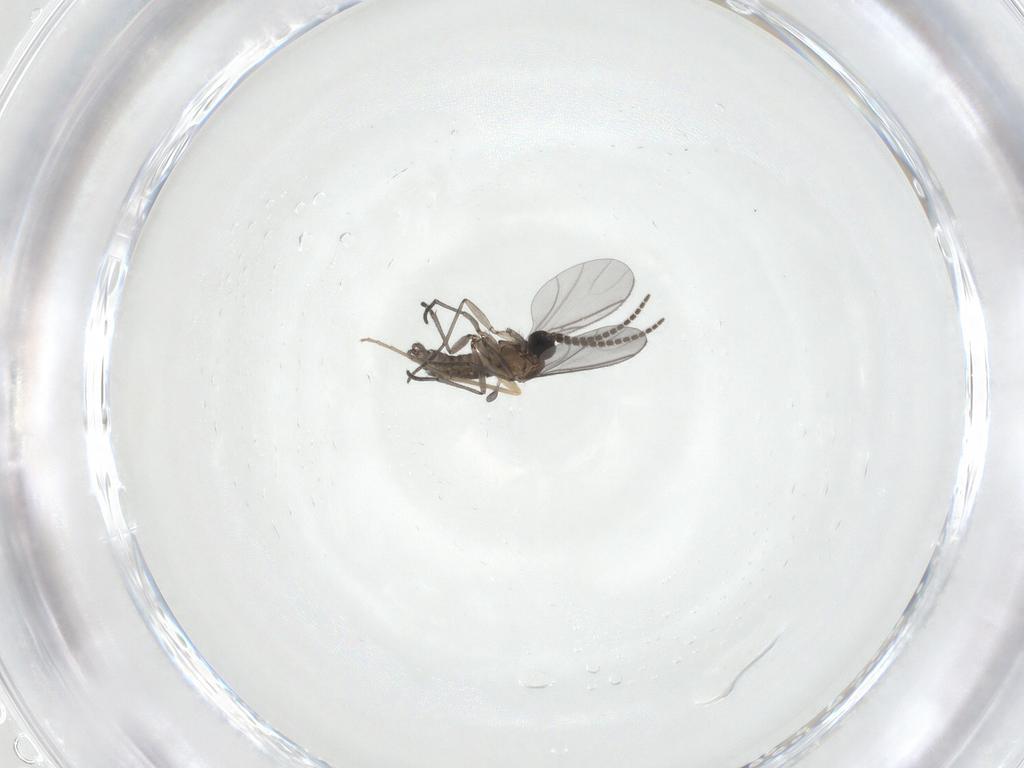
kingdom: Animalia
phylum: Arthropoda
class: Insecta
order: Diptera
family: Sciaridae
